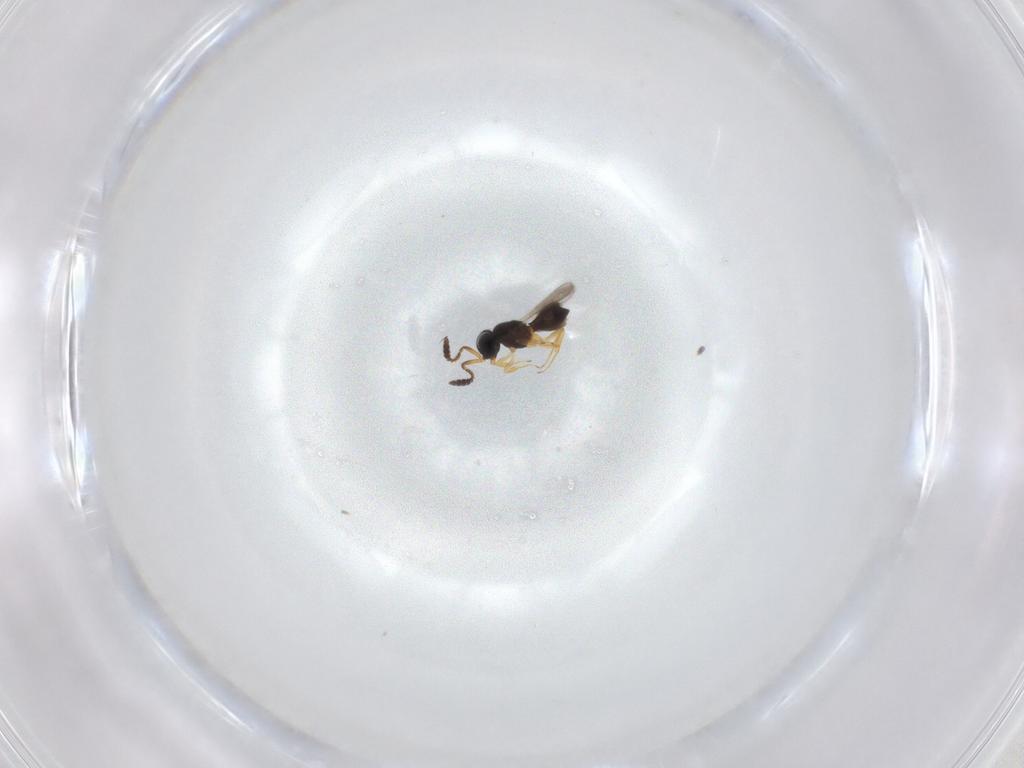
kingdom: Animalia
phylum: Arthropoda
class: Insecta
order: Hymenoptera
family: Scelionidae
